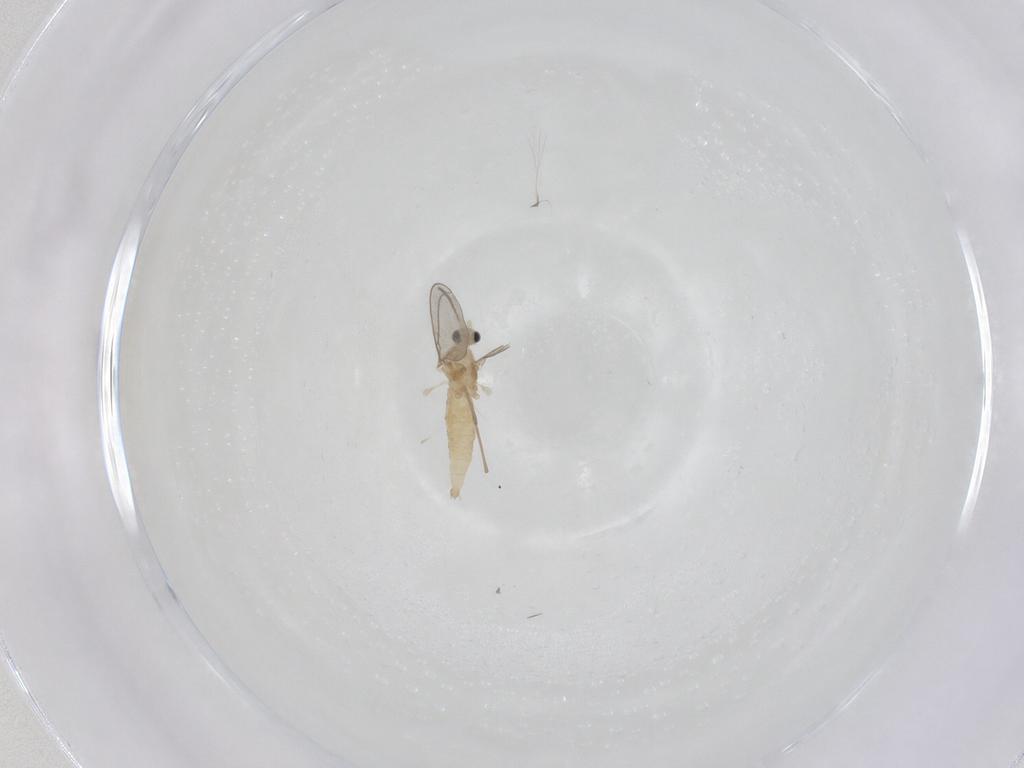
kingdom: Animalia
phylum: Arthropoda
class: Insecta
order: Diptera
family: Cecidomyiidae
